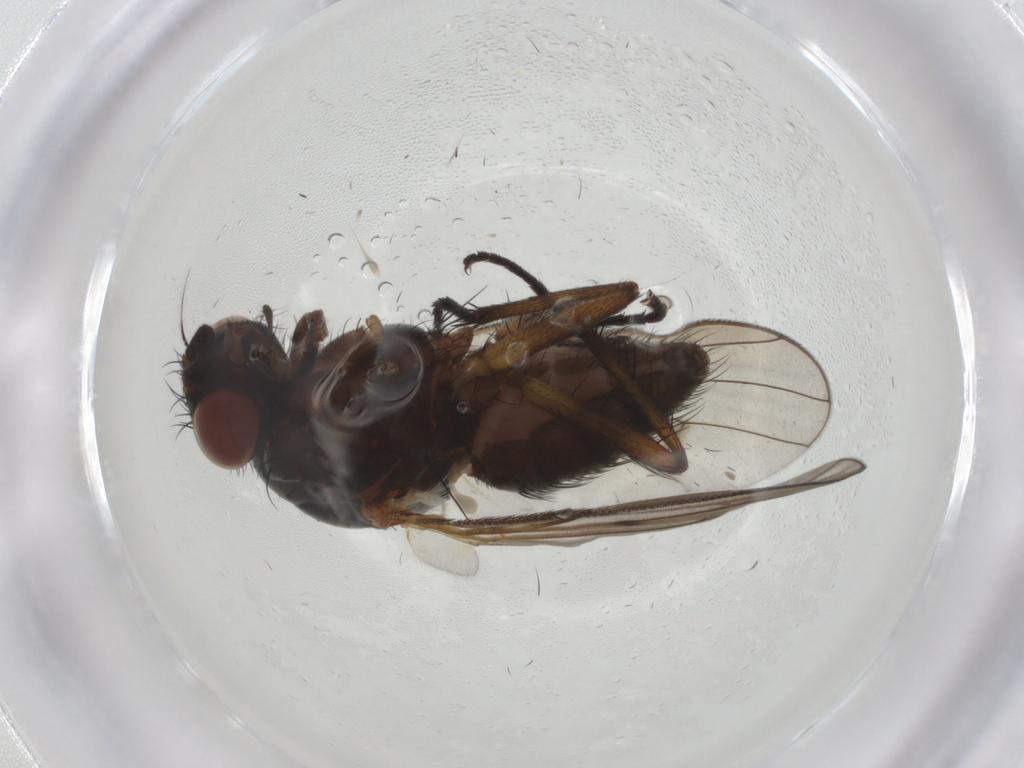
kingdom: Animalia
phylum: Arthropoda
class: Insecta
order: Diptera
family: Anthomyiidae
